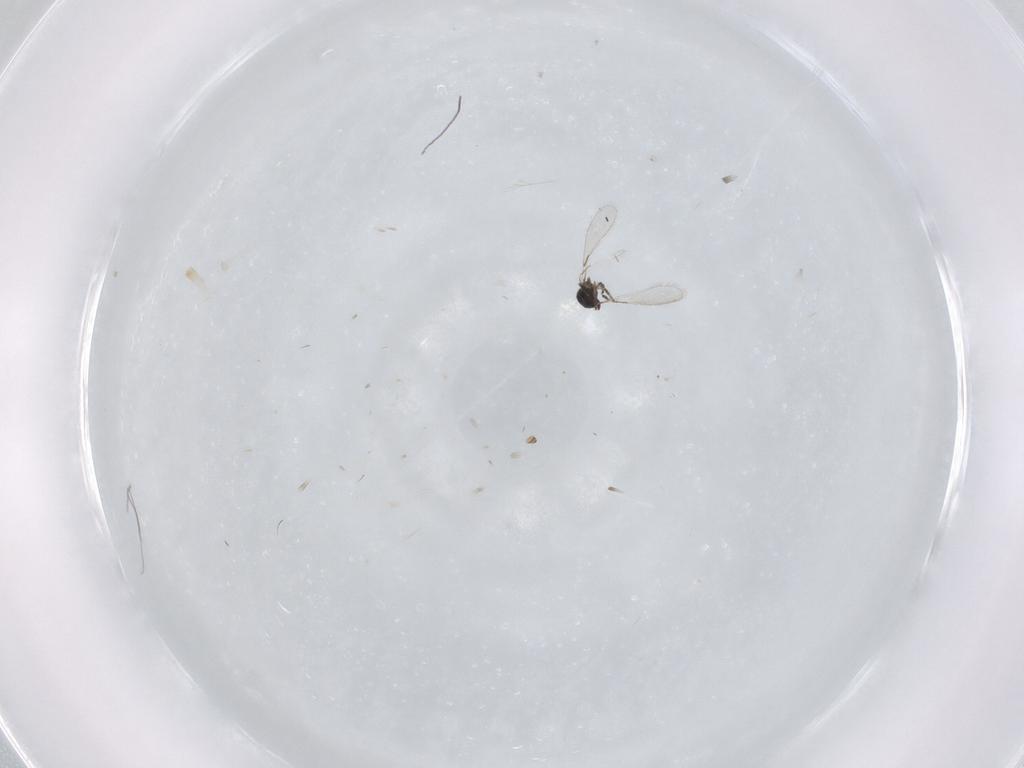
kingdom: Animalia
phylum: Arthropoda
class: Insecta
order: Hymenoptera
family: Mymaridae
